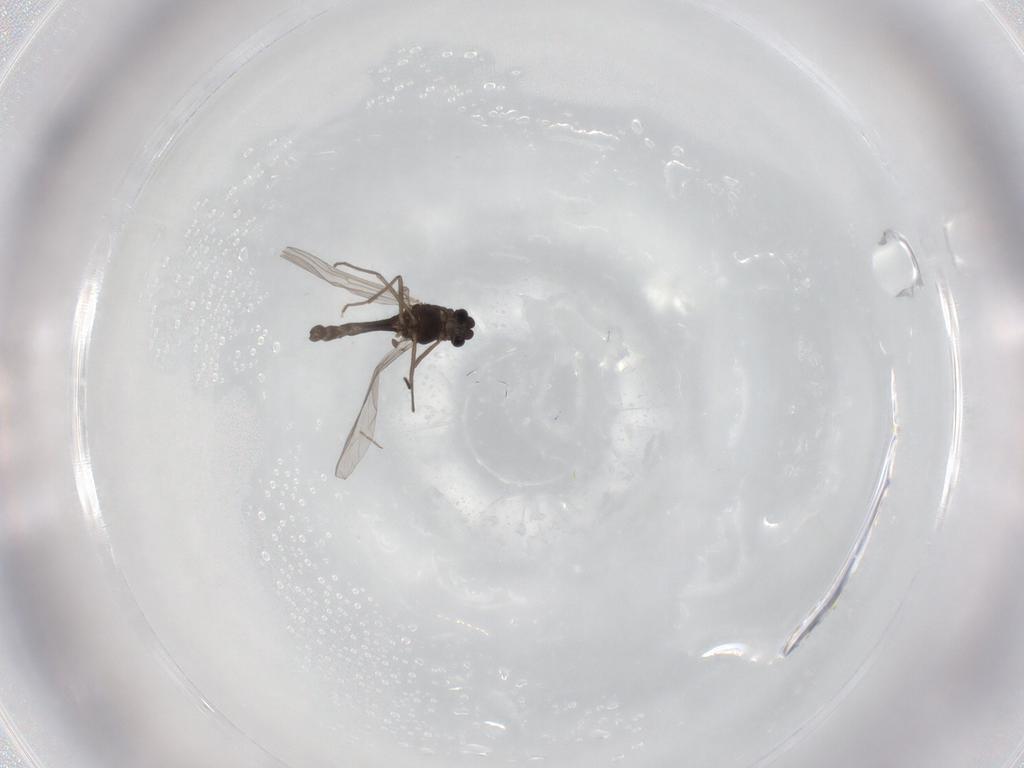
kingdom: Animalia
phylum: Arthropoda
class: Insecta
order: Diptera
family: Chironomidae
